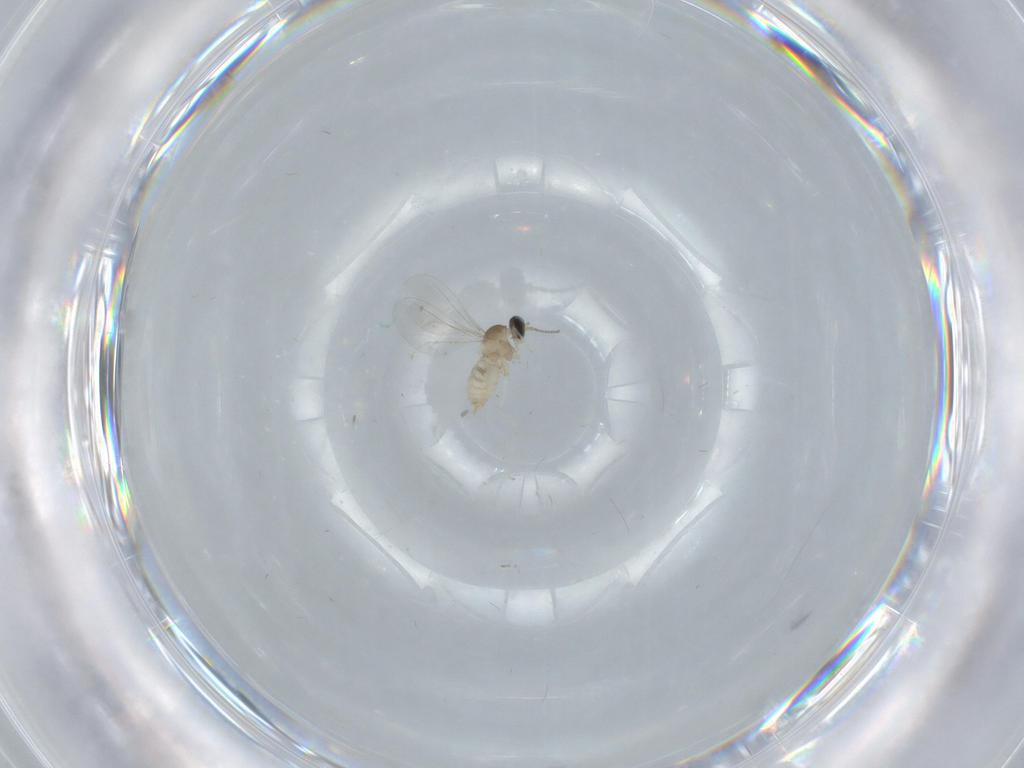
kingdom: Animalia
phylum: Arthropoda
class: Insecta
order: Diptera
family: Cecidomyiidae
